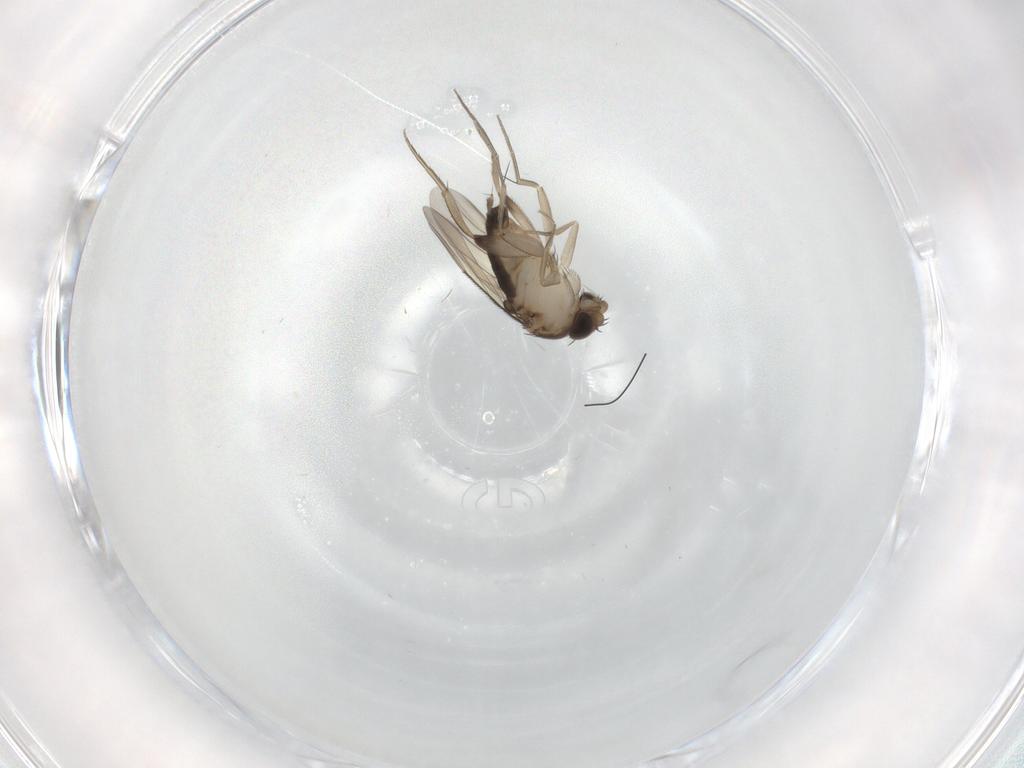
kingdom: Animalia
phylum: Arthropoda
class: Insecta
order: Diptera
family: Phoridae
